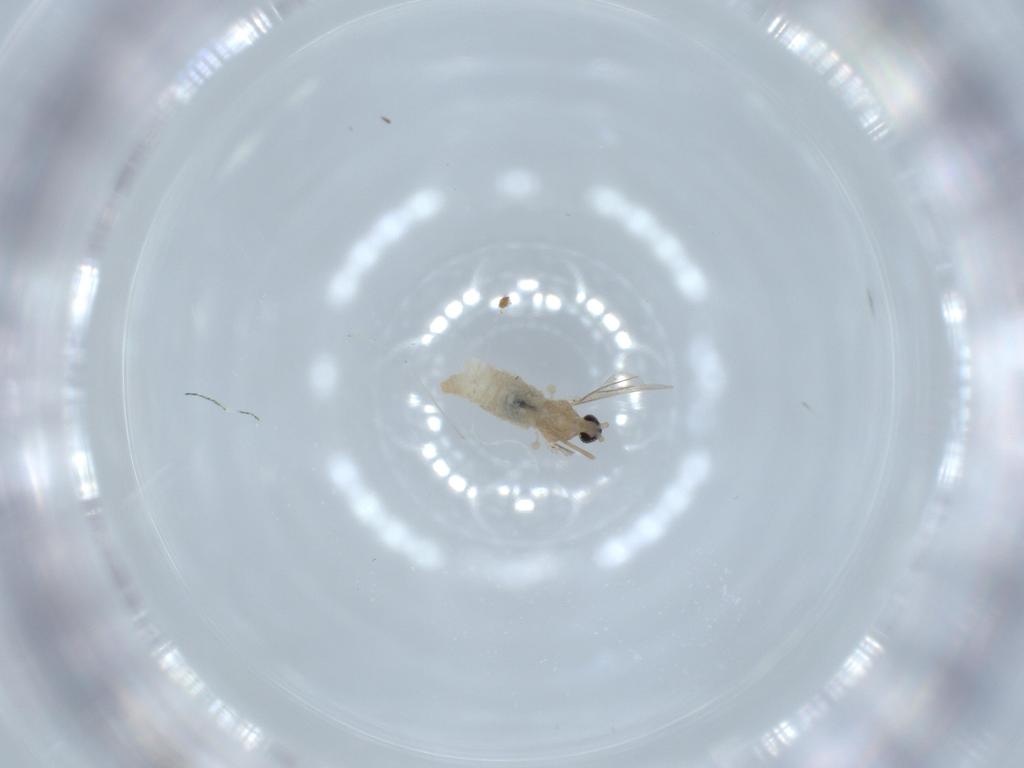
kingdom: Animalia
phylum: Arthropoda
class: Insecta
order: Diptera
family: Cecidomyiidae
